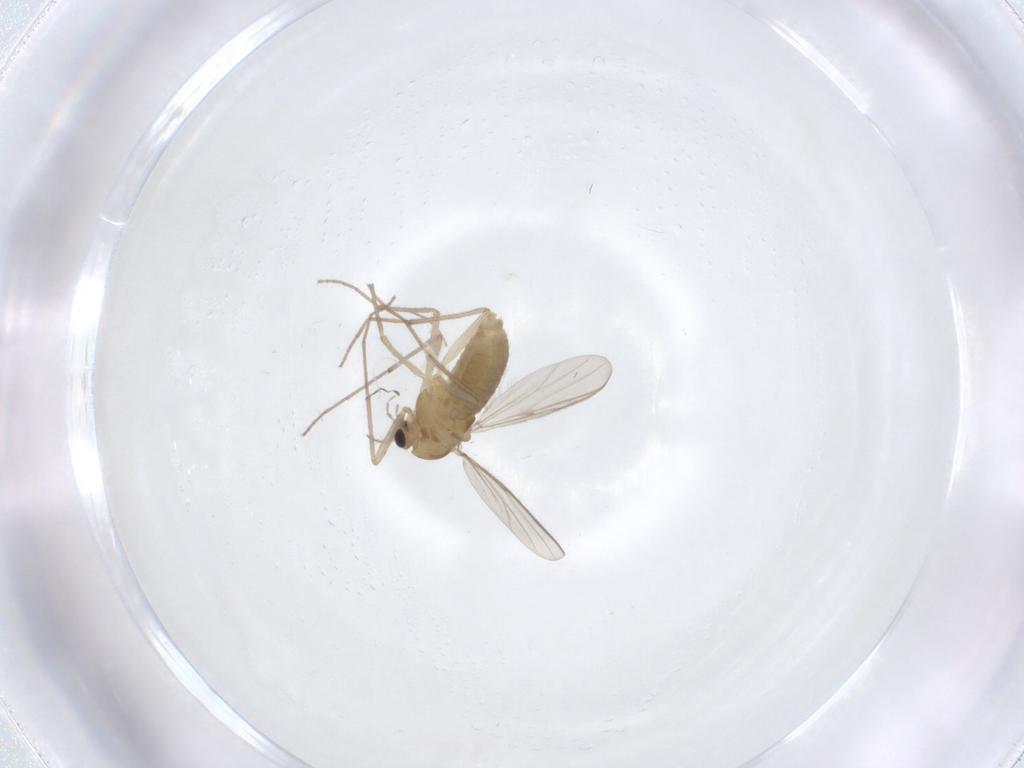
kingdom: Animalia
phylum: Arthropoda
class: Insecta
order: Diptera
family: Chironomidae
